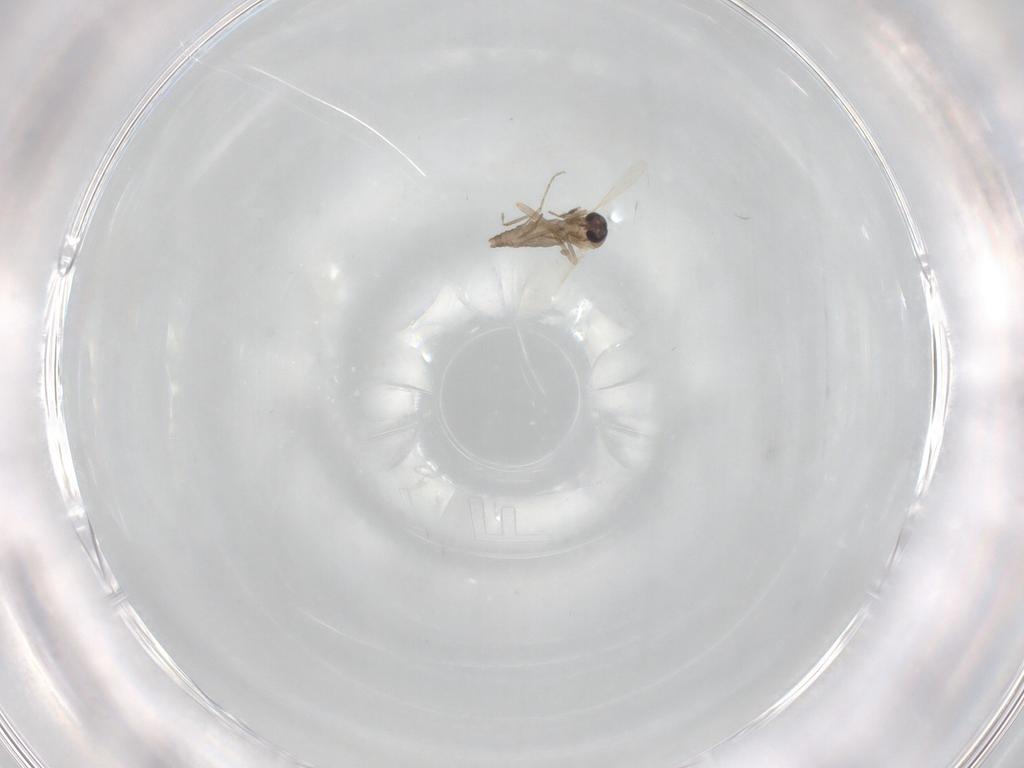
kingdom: Animalia
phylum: Arthropoda
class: Insecta
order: Diptera
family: Ceratopogonidae
